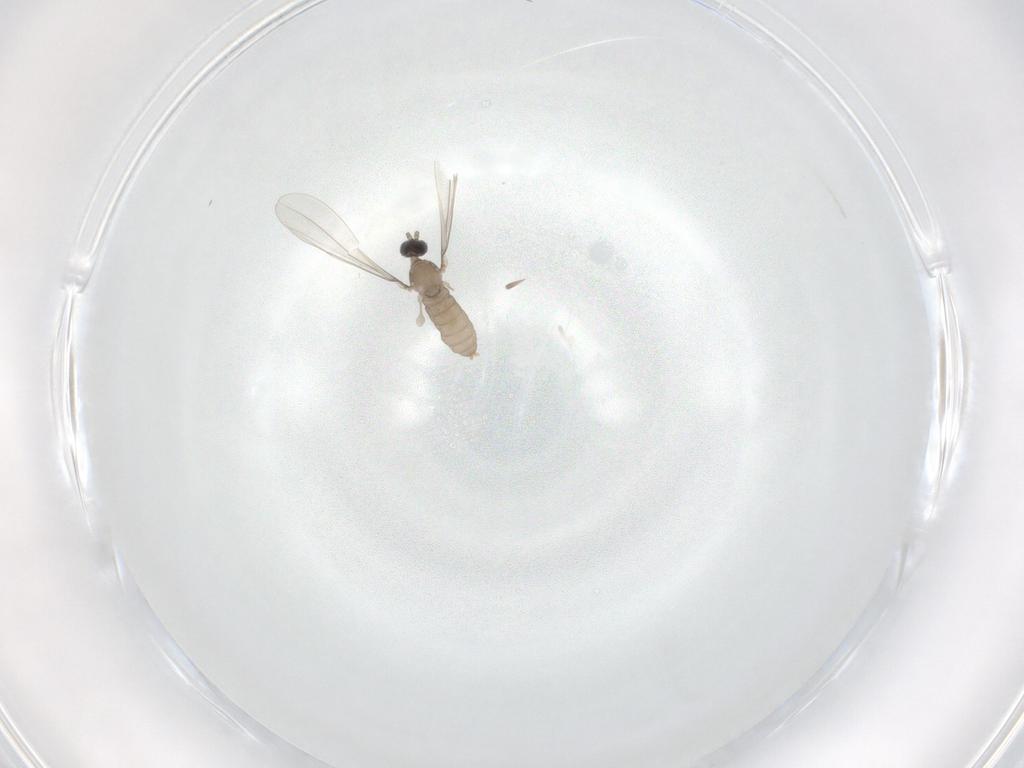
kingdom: Animalia
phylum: Arthropoda
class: Insecta
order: Diptera
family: Cecidomyiidae
